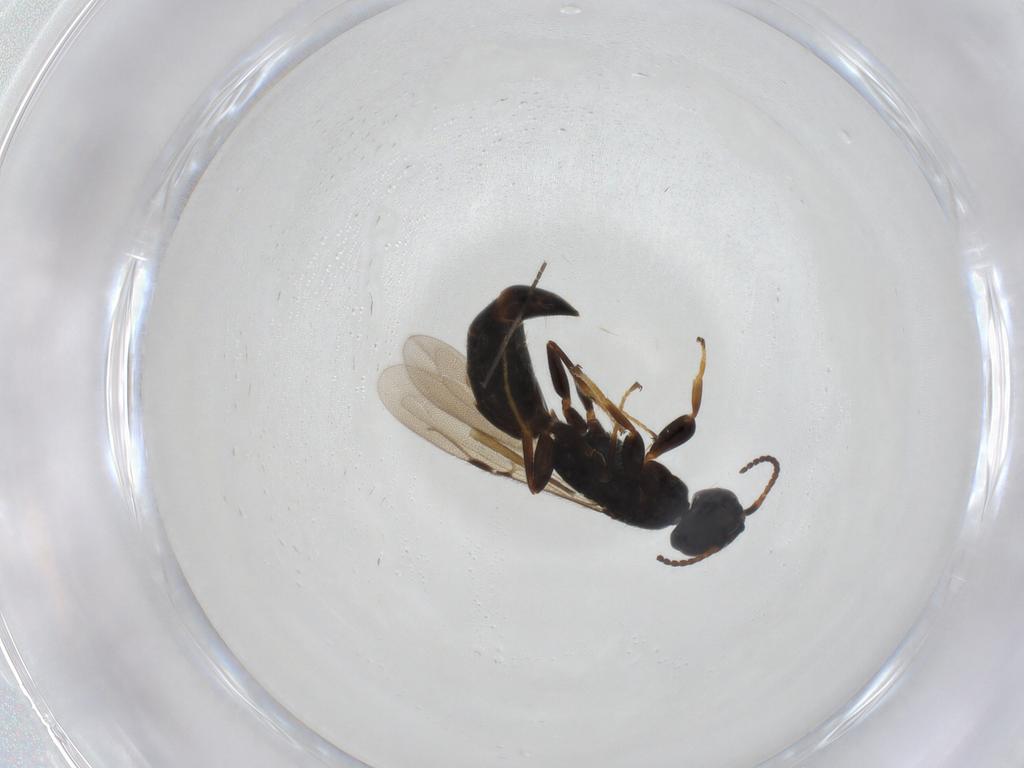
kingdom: Animalia
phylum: Arthropoda
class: Insecta
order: Hymenoptera
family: Bethylidae
